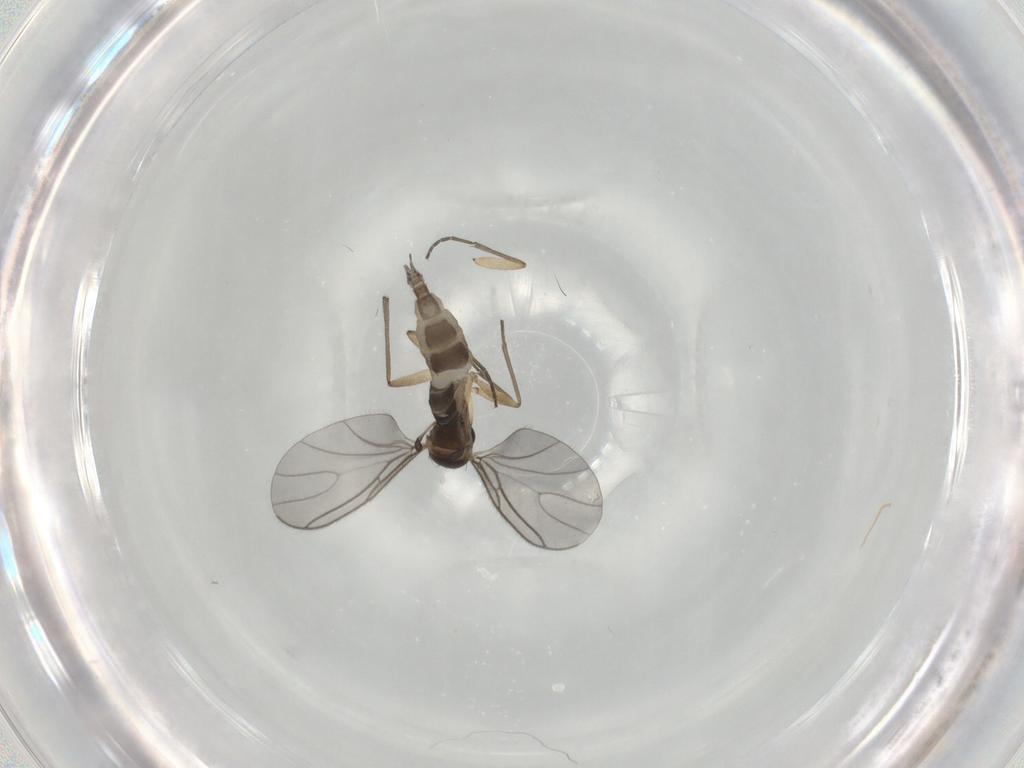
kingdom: Animalia
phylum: Arthropoda
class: Insecta
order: Diptera
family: Sciaridae
